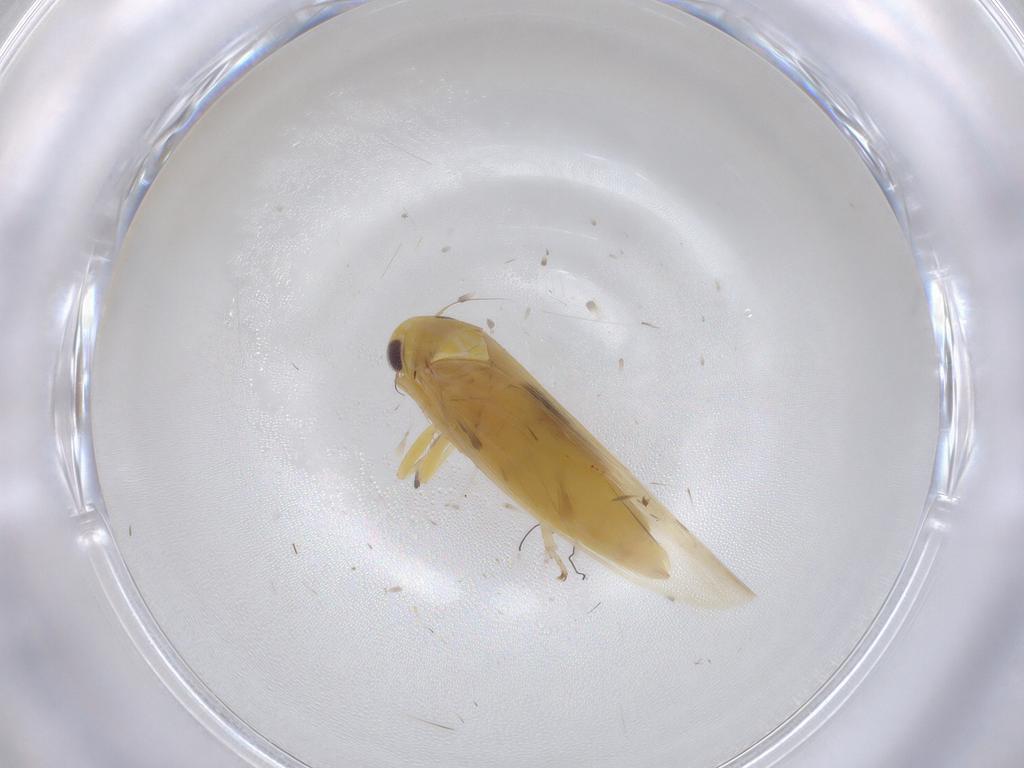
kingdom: Animalia
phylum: Arthropoda
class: Insecta
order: Hemiptera
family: Cicadellidae
